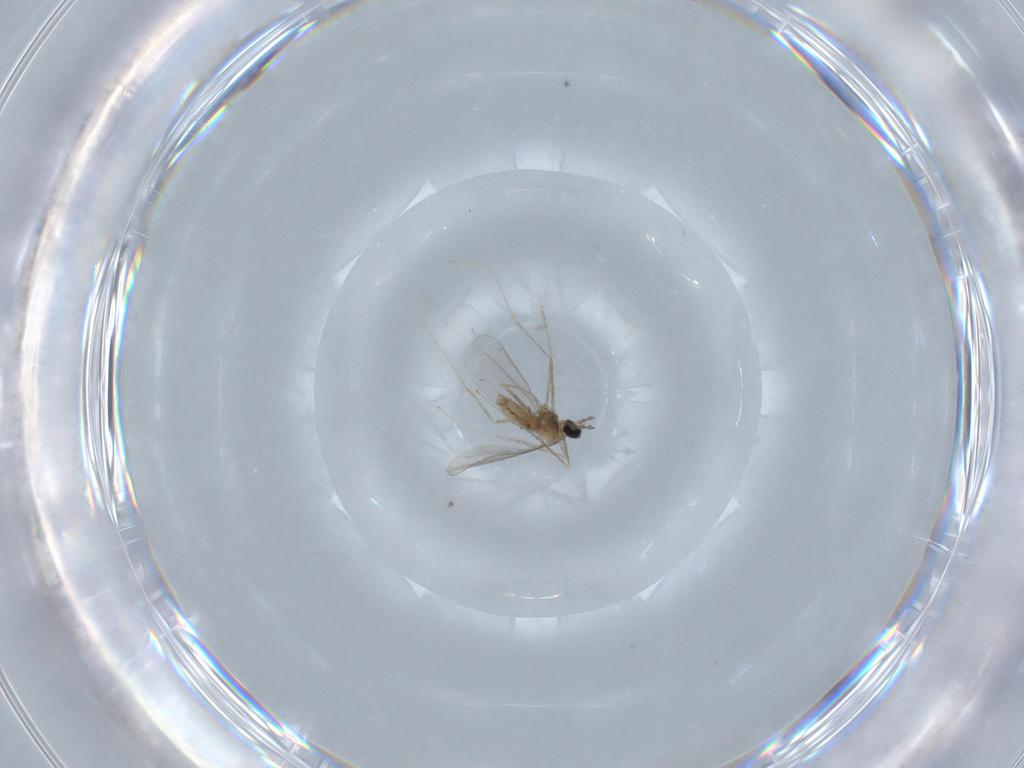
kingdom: Animalia
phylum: Arthropoda
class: Insecta
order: Diptera
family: Cecidomyiidae
